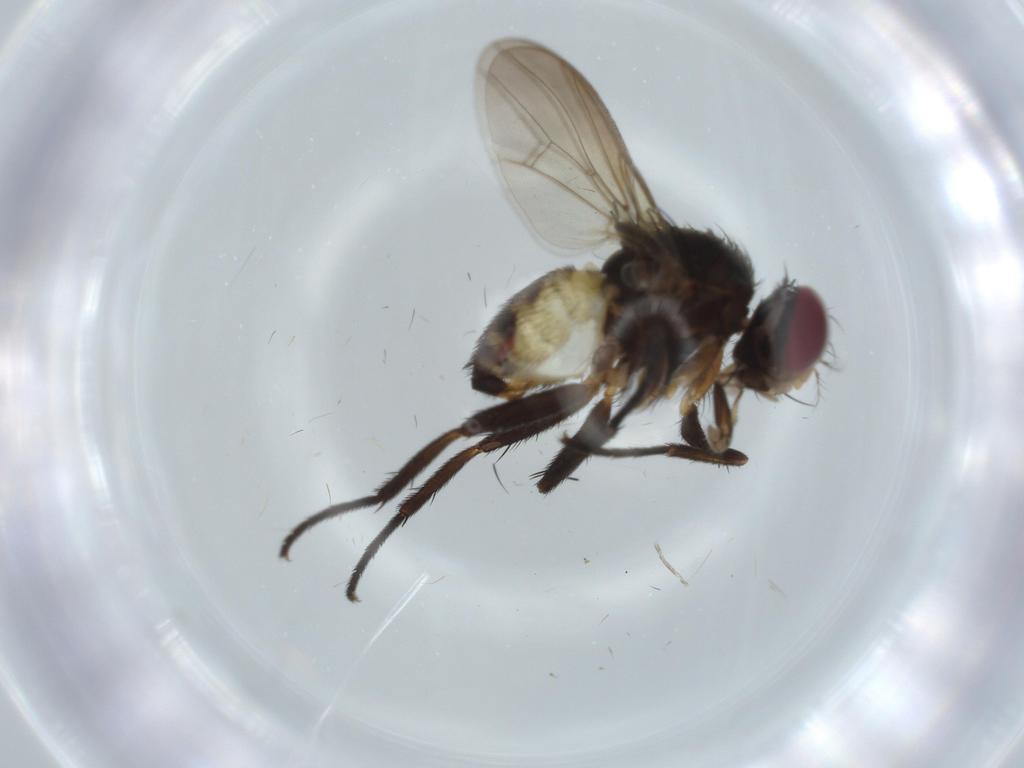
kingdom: Animalia
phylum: Arthropoda
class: Insecta
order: Diptera
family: Anthomyiidae
